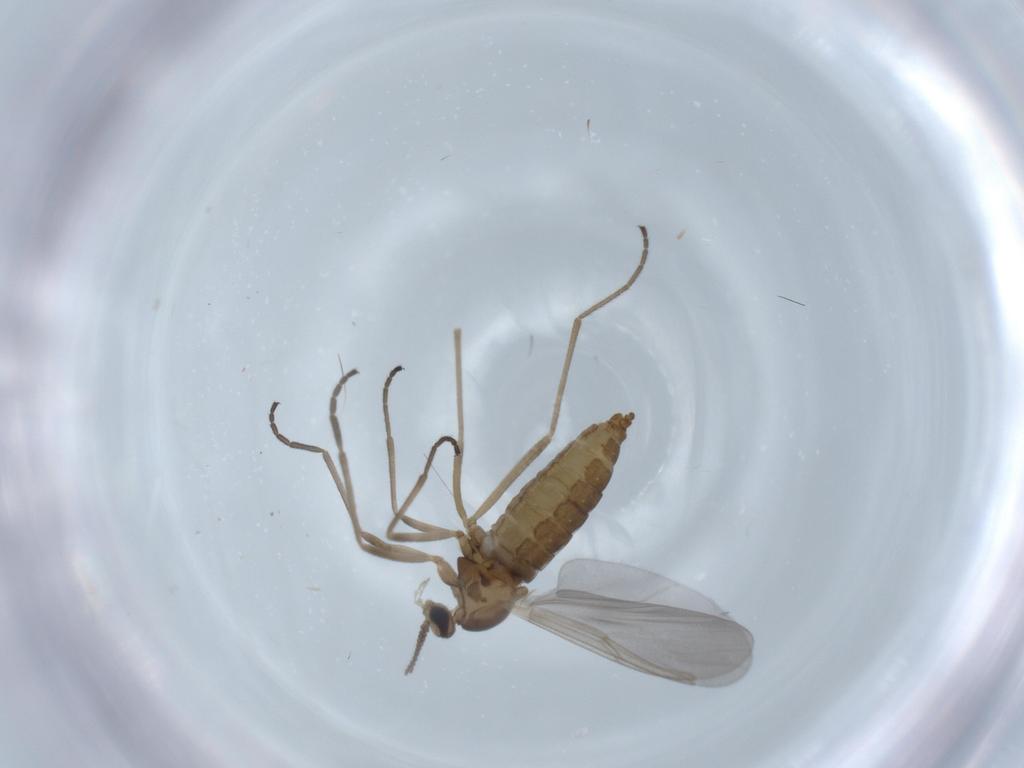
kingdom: Animalia
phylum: Arthropoda
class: Insecta
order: Diptera
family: Cecidomyiidae
